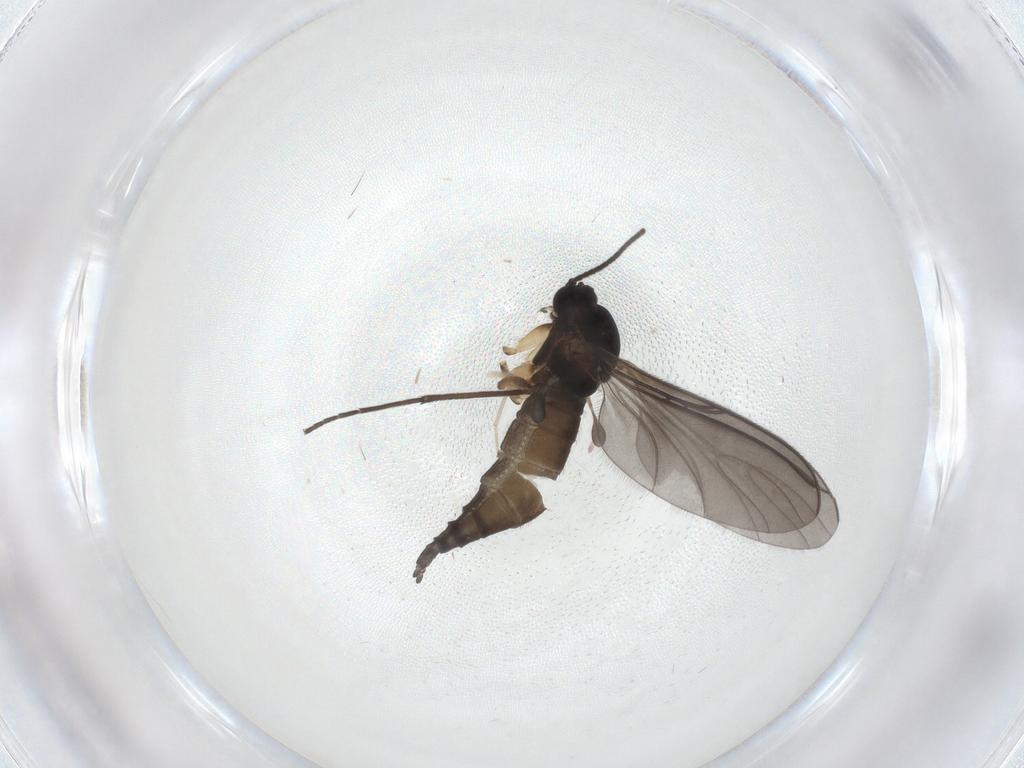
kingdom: Animalia
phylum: Arthropoda
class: Insecta
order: Diptera
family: Sciaridae
